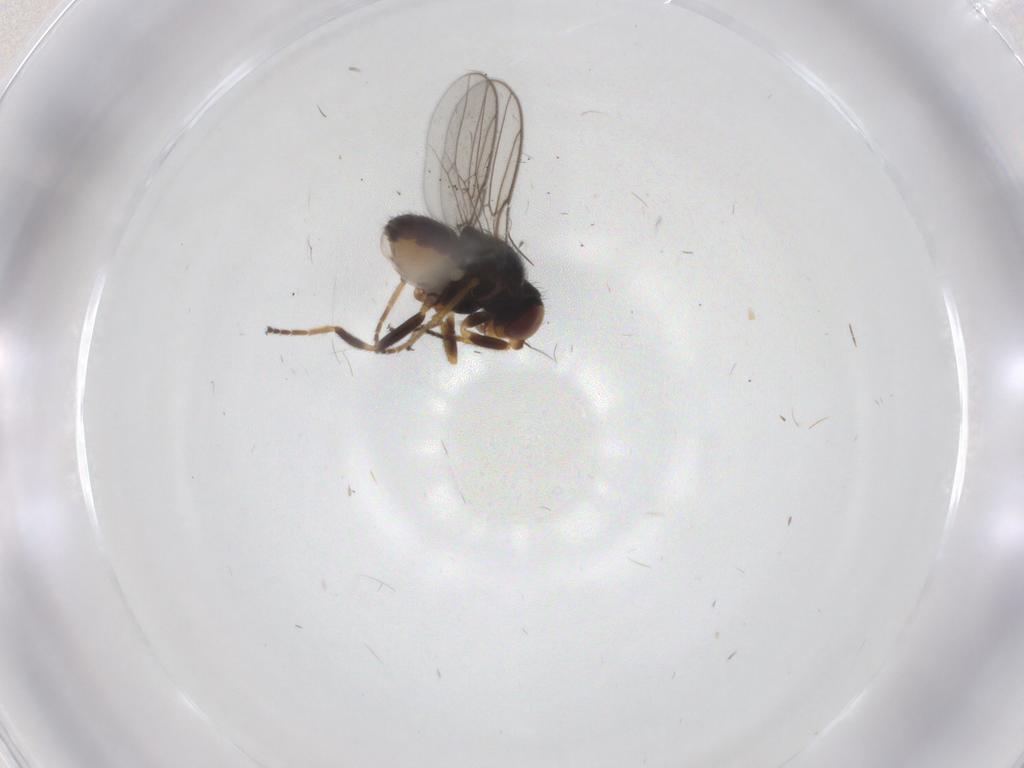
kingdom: Animalia
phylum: Arthropoda
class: Insecta
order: Diptera
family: Chloropidae
